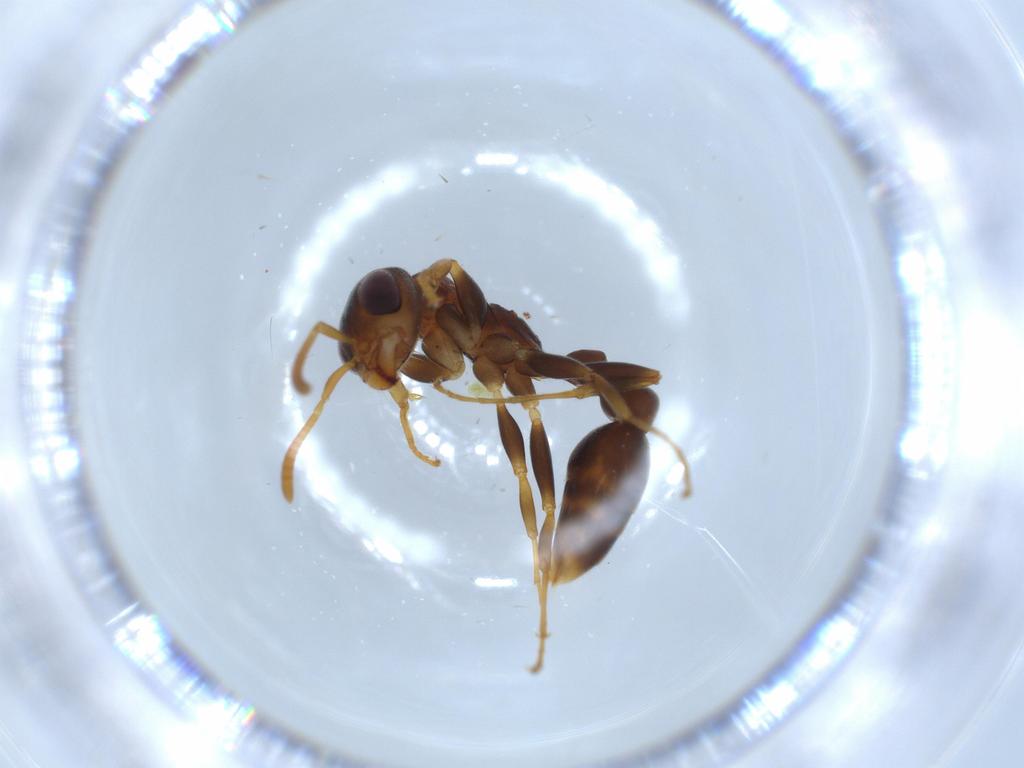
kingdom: Animalia
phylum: Arthropoda
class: Insecta
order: Hymenoptera
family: Formicidae
